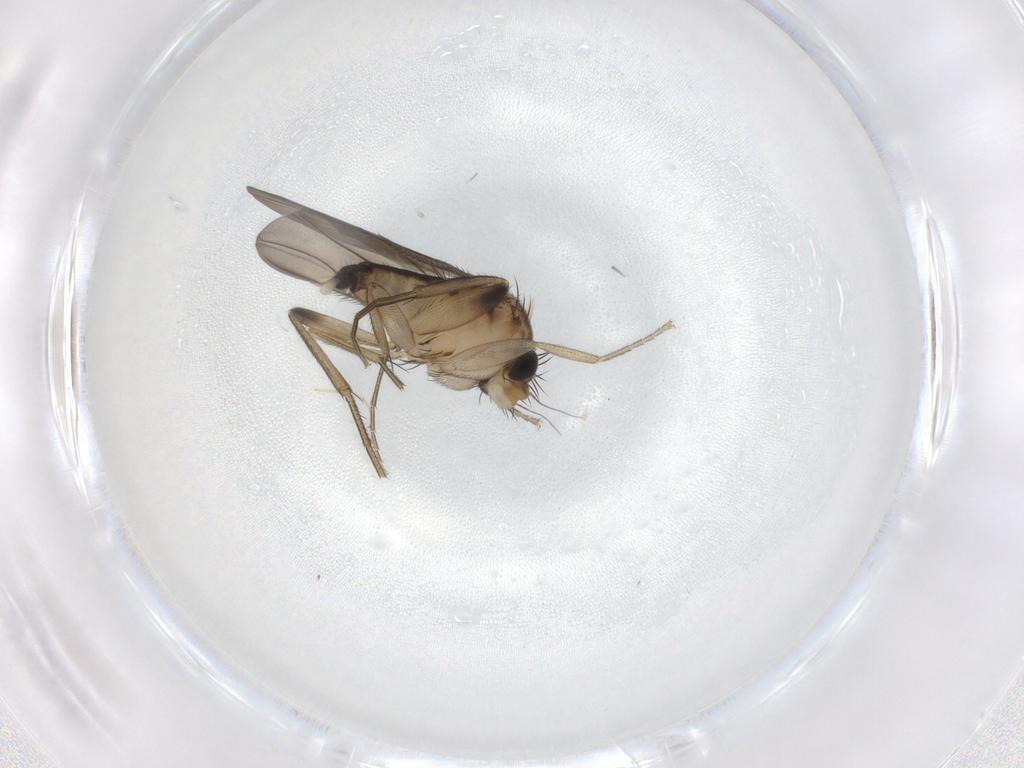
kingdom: Animalia
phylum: Arthropoda
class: Insecta
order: Diptera
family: Phoridae
